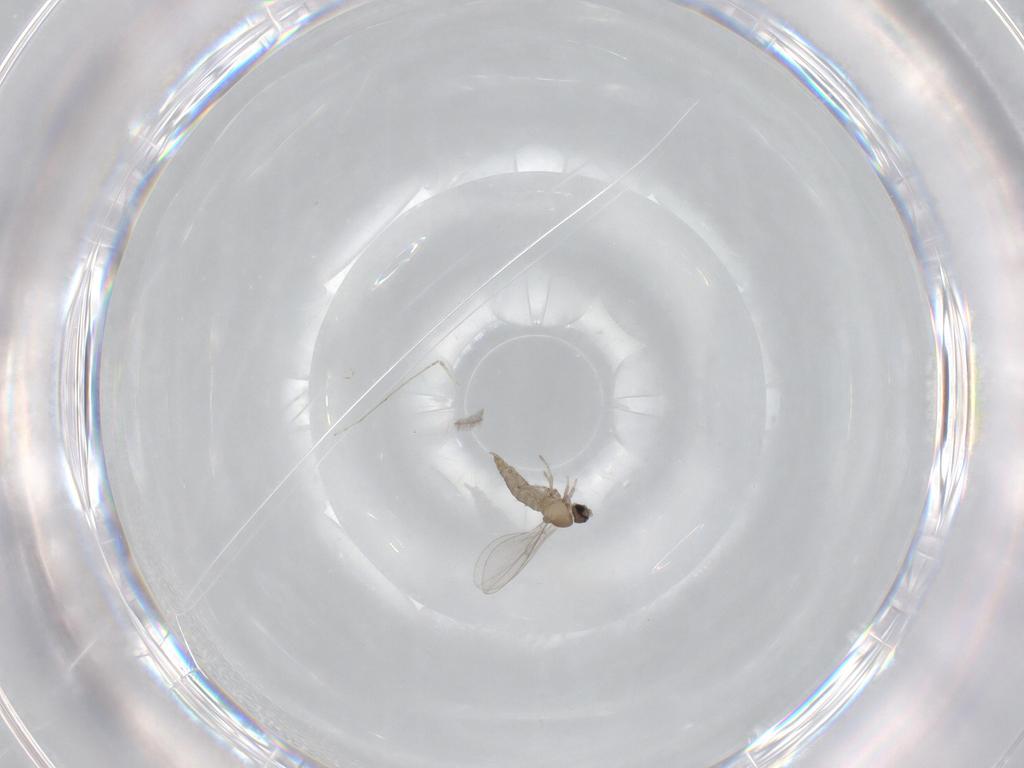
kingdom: Animalia
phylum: Arthropoda
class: Insecta
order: Diptera
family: Cecidomyiidae
